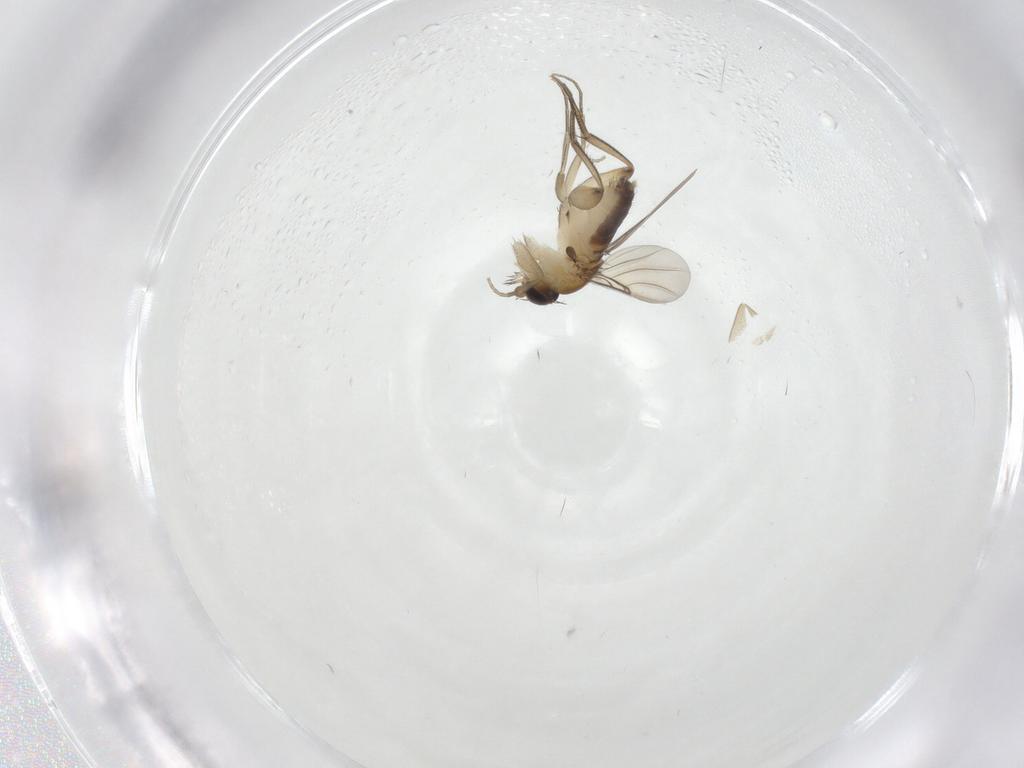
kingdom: Animalia
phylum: Arthropoda
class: Insecta
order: Diptera
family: Phoridae
